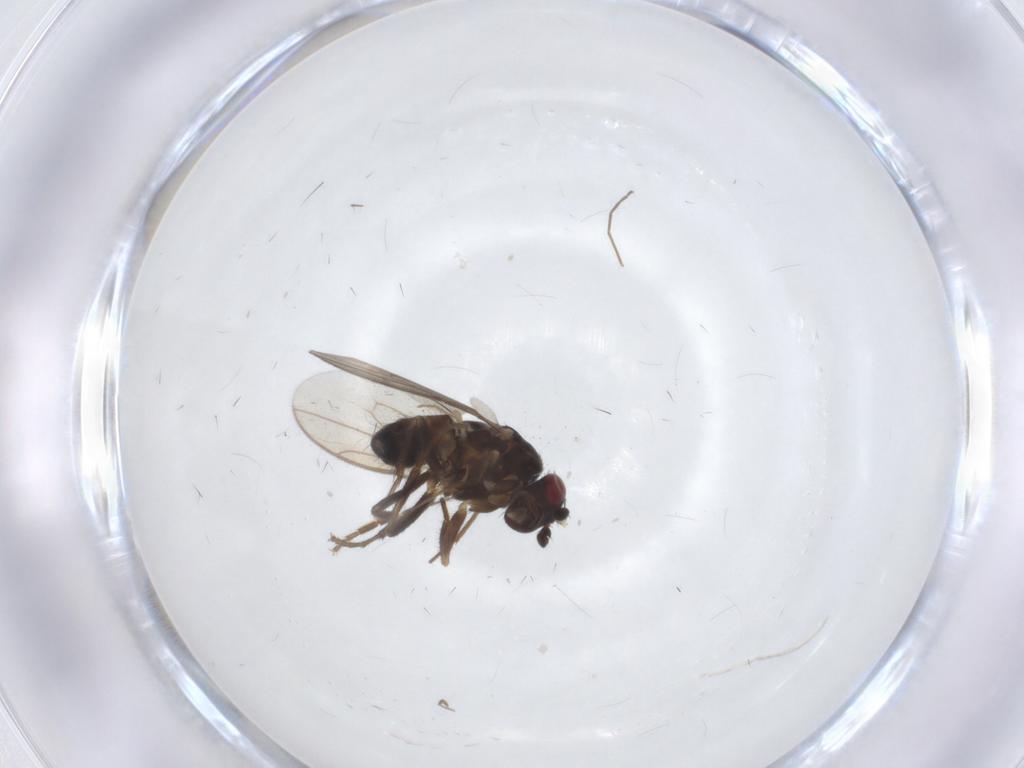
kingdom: Animalia
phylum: Arthropoda
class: Insecta
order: Diptera
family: Sphaeroceridae
